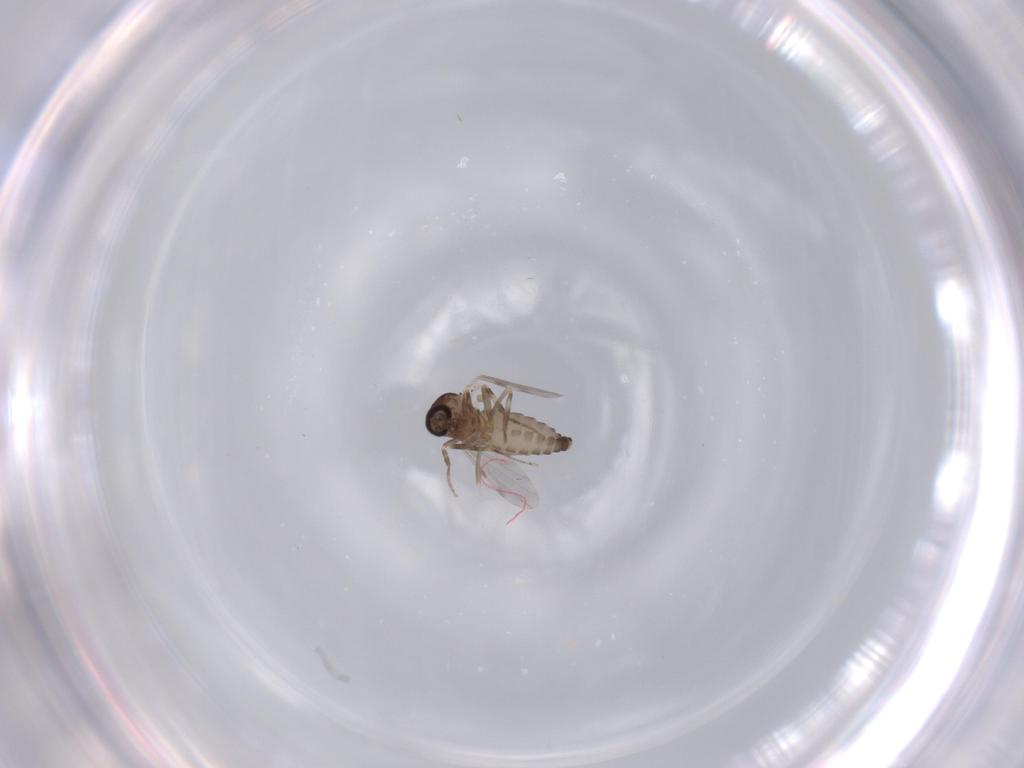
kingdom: Animalia
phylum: Arthropoda
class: Insecta
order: Diptera
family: Ceratopogonidae
